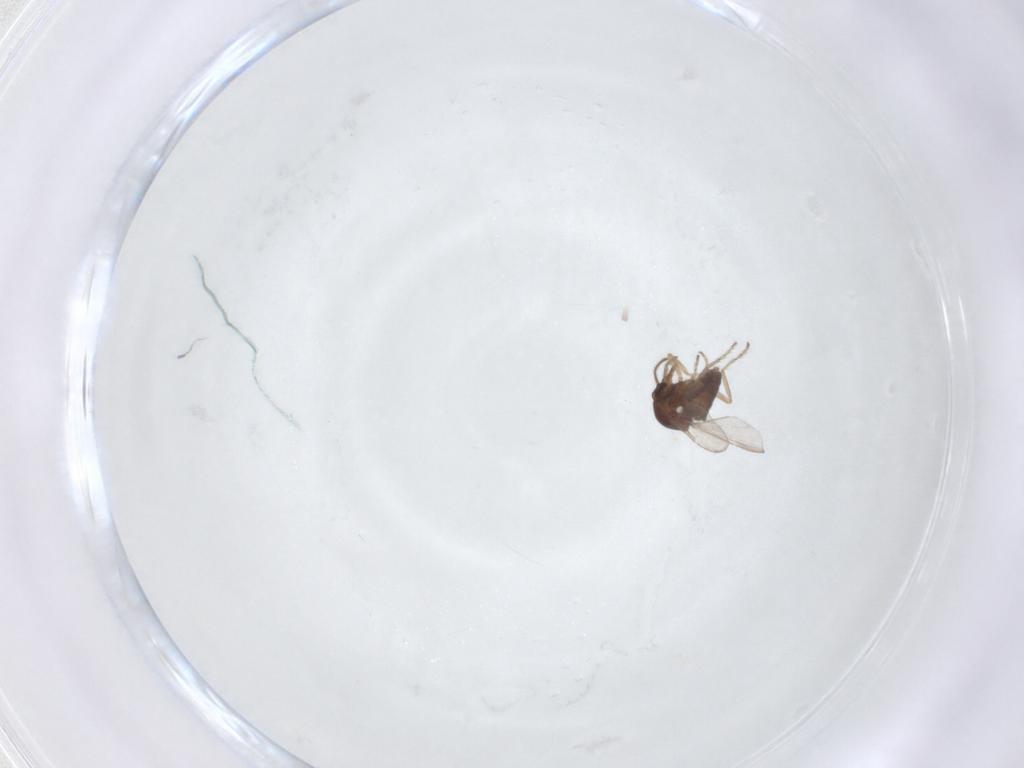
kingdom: Animalia
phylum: Arthropoda
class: Insecta
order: Diptera
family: Ceratopogonidae
